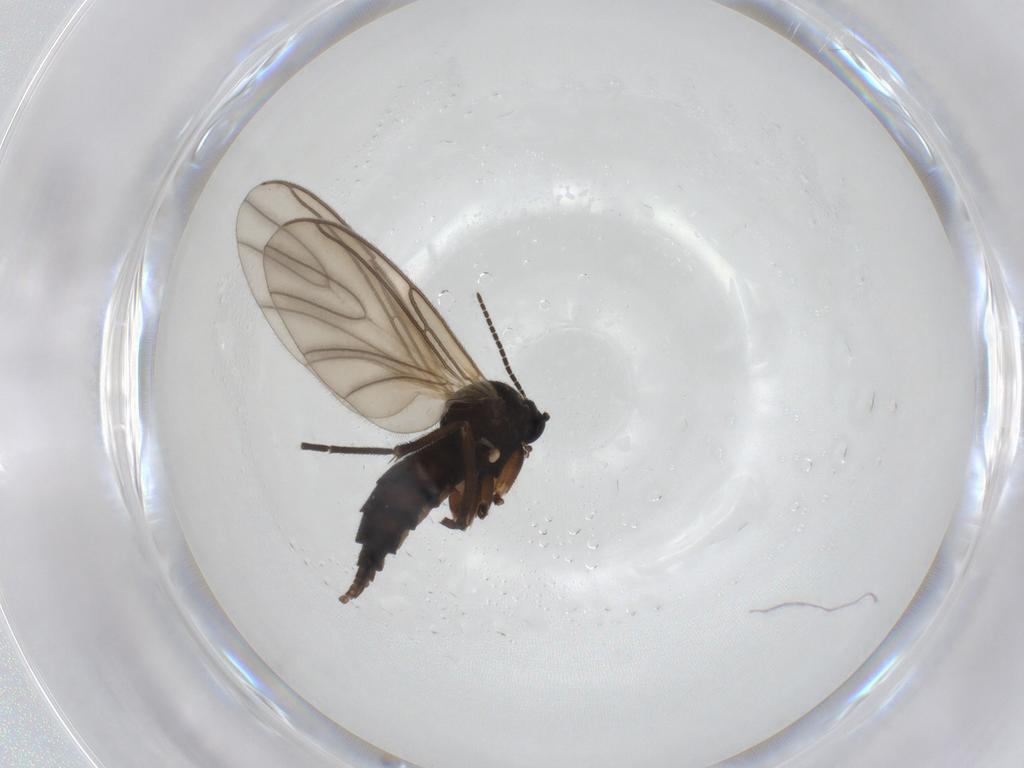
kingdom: Animalia
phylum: Arthropoda
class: Insecta
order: Diptera
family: Sciaridae
